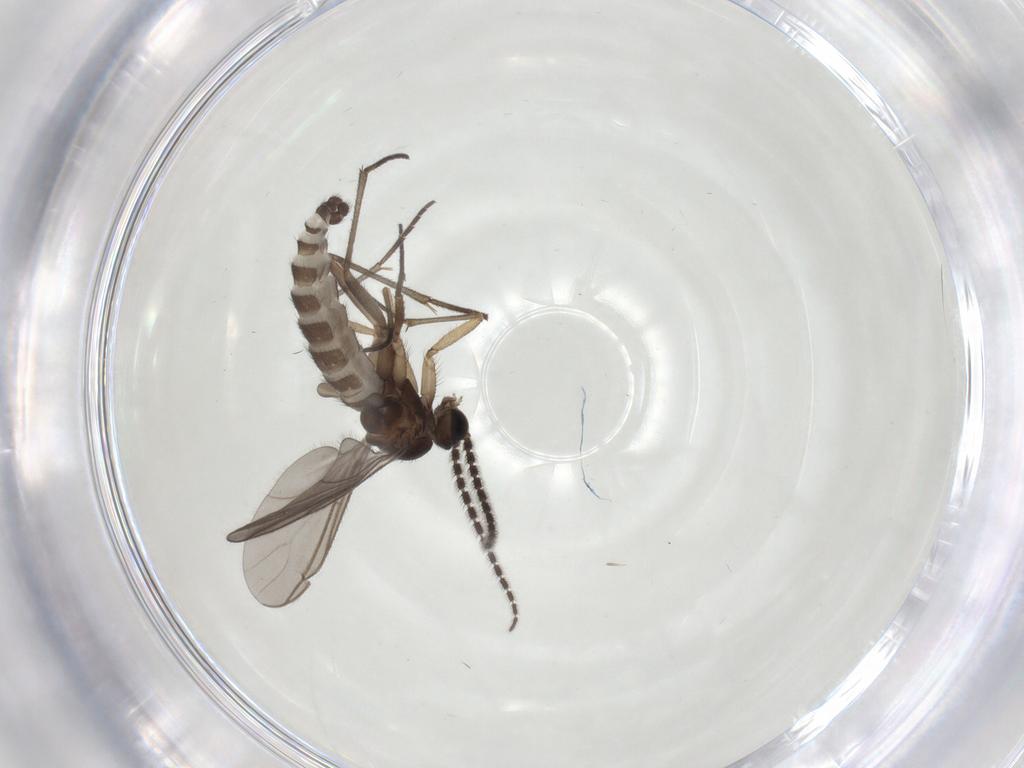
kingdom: Animalia
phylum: Arthropoda
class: Insecta
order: Diptera
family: Sciaridae
